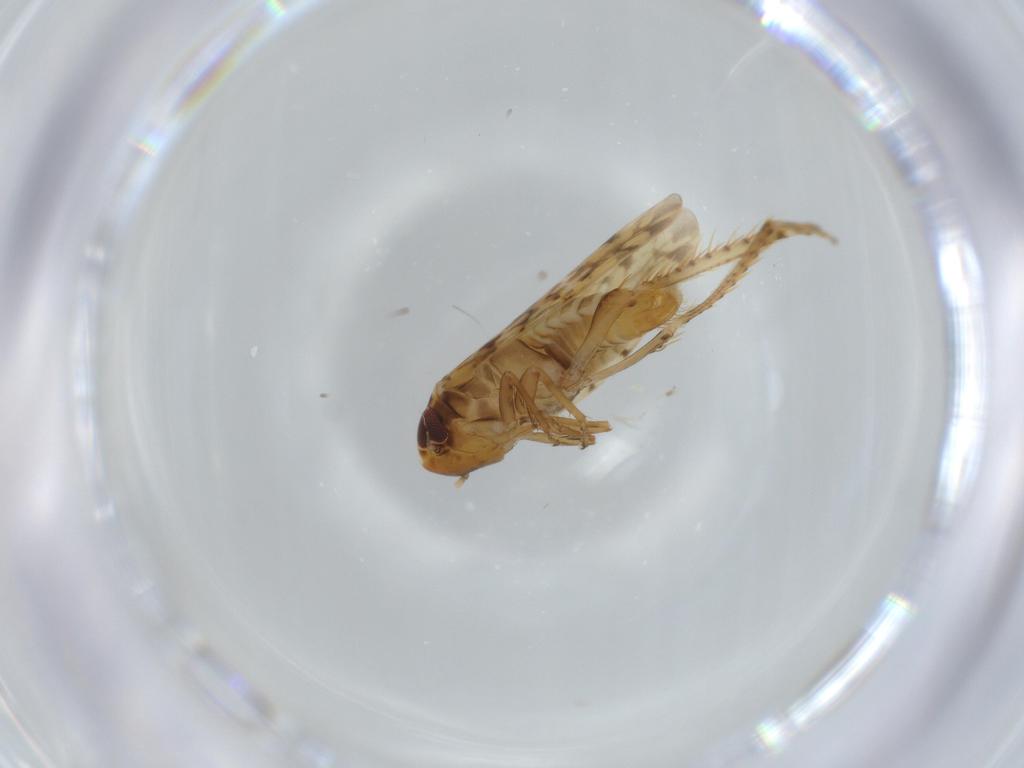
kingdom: Animalia
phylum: Arthropoda
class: Insecta
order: Hemiptera
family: Cicadellidae
